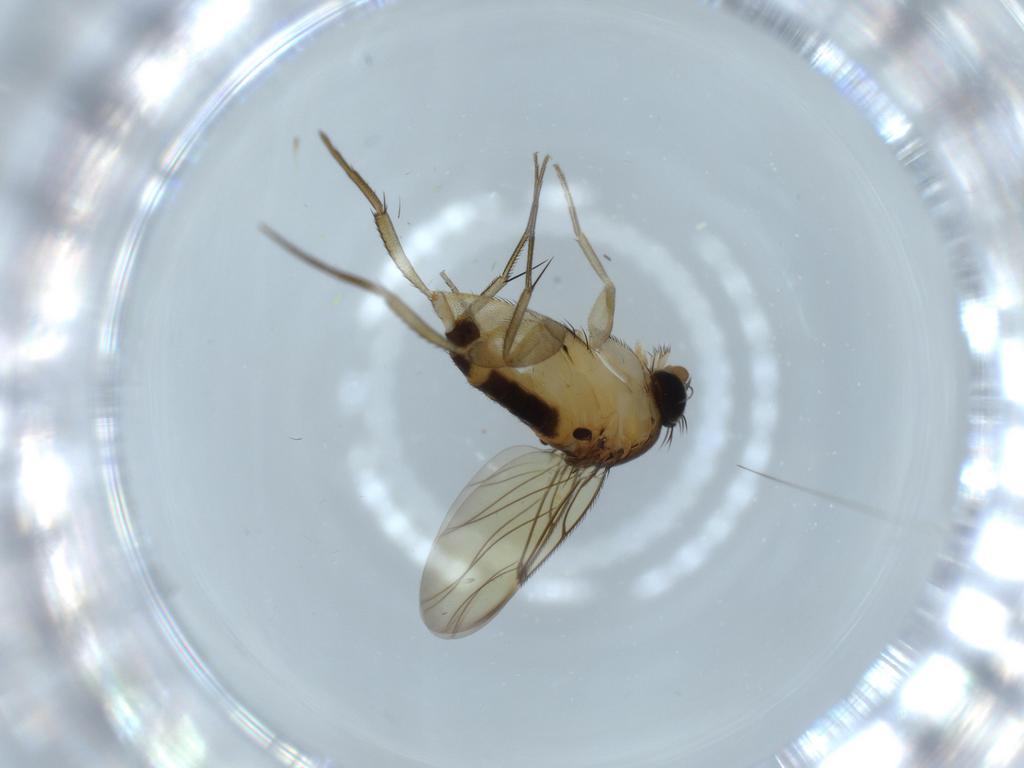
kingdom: Animalia
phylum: Arthropoda
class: Insecta
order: Diptera
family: Phoridae
